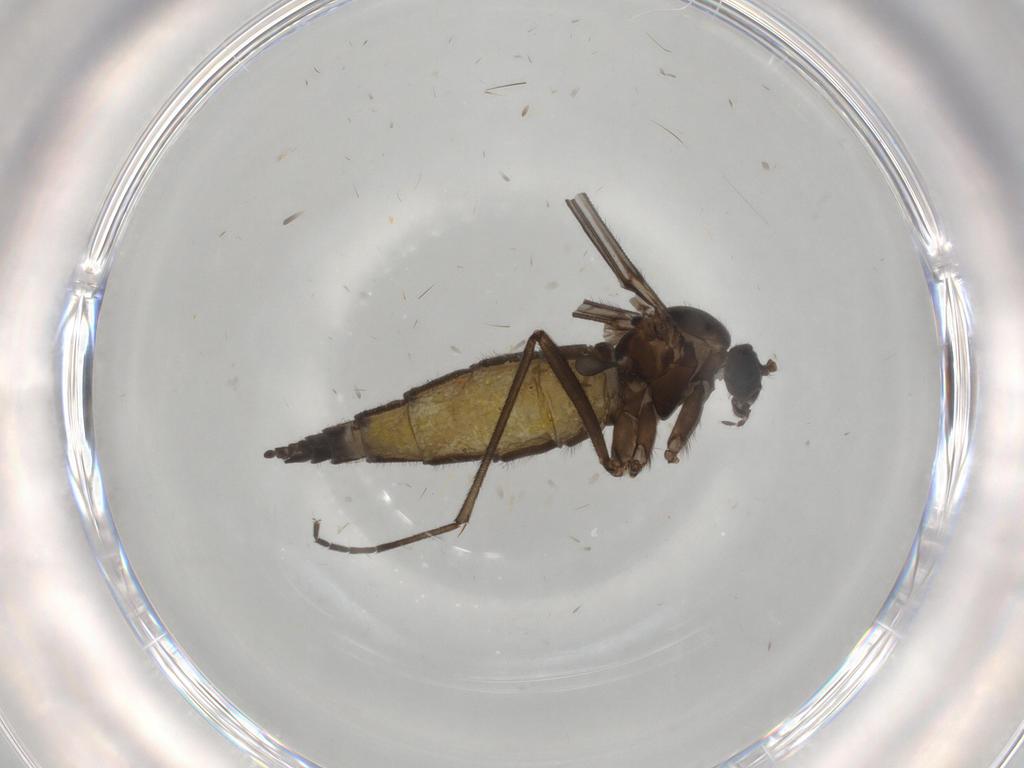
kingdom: Animalia
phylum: Arthropoda
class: Insecta
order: Diptera
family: Sciaridae
